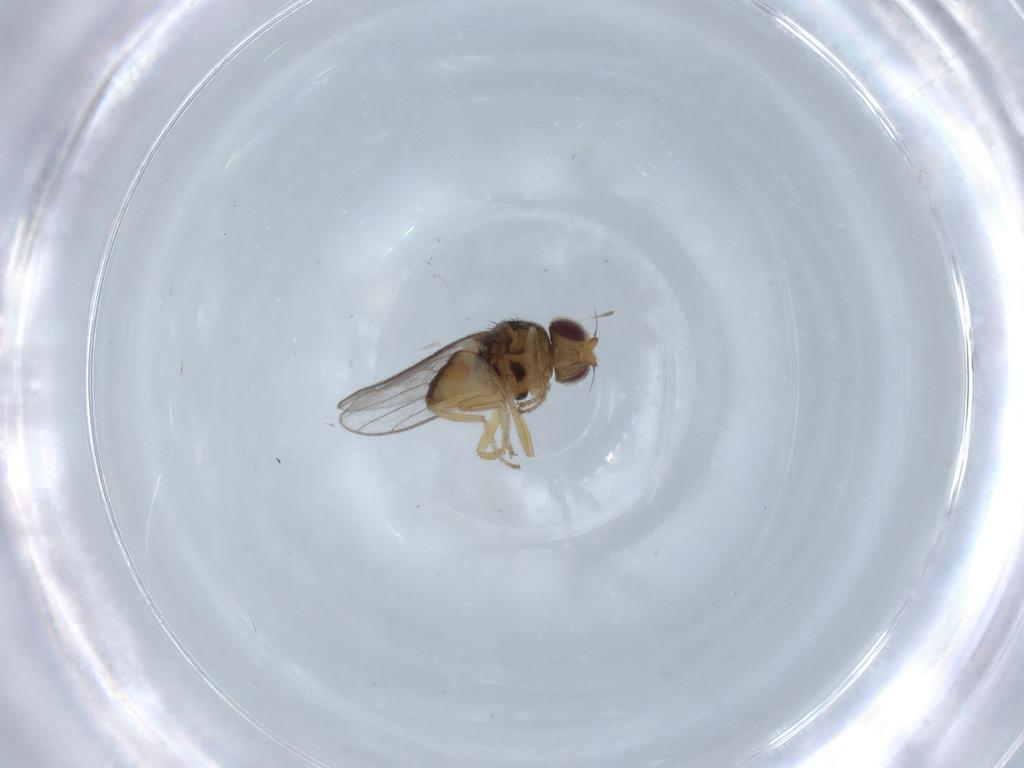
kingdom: Animalia
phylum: Arthropoda
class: Insecta
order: Diptera
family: Chloropidae
